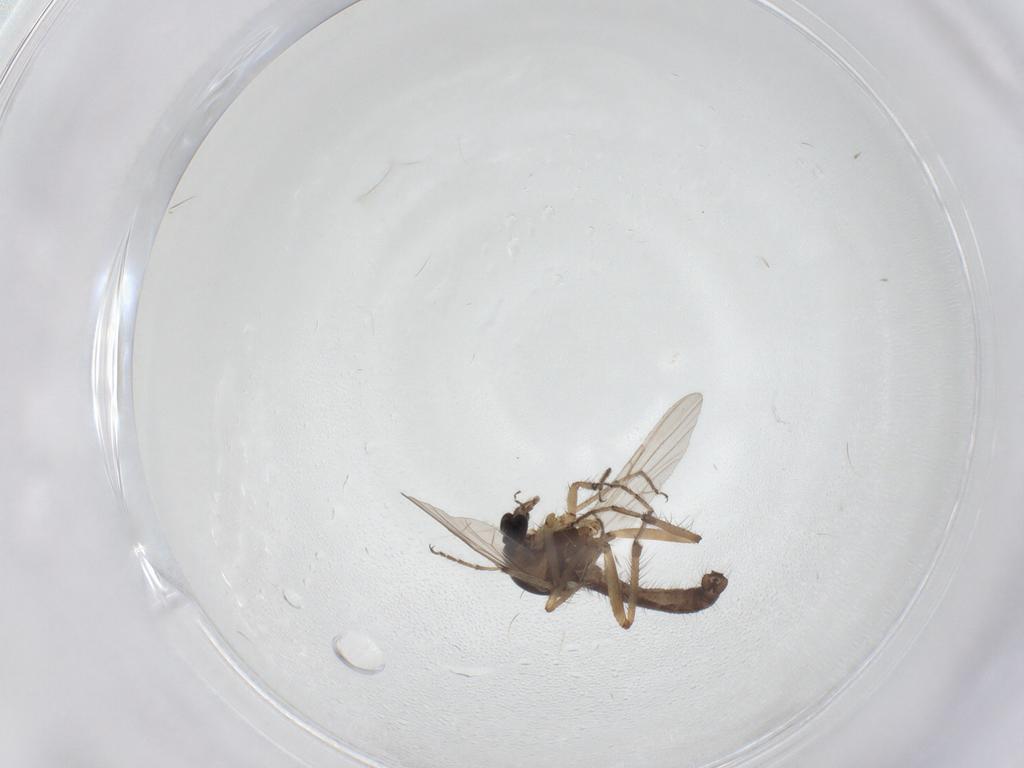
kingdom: Animalia
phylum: Arthropoda
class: Insecta
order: Diptera
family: Ceratopogonidae
